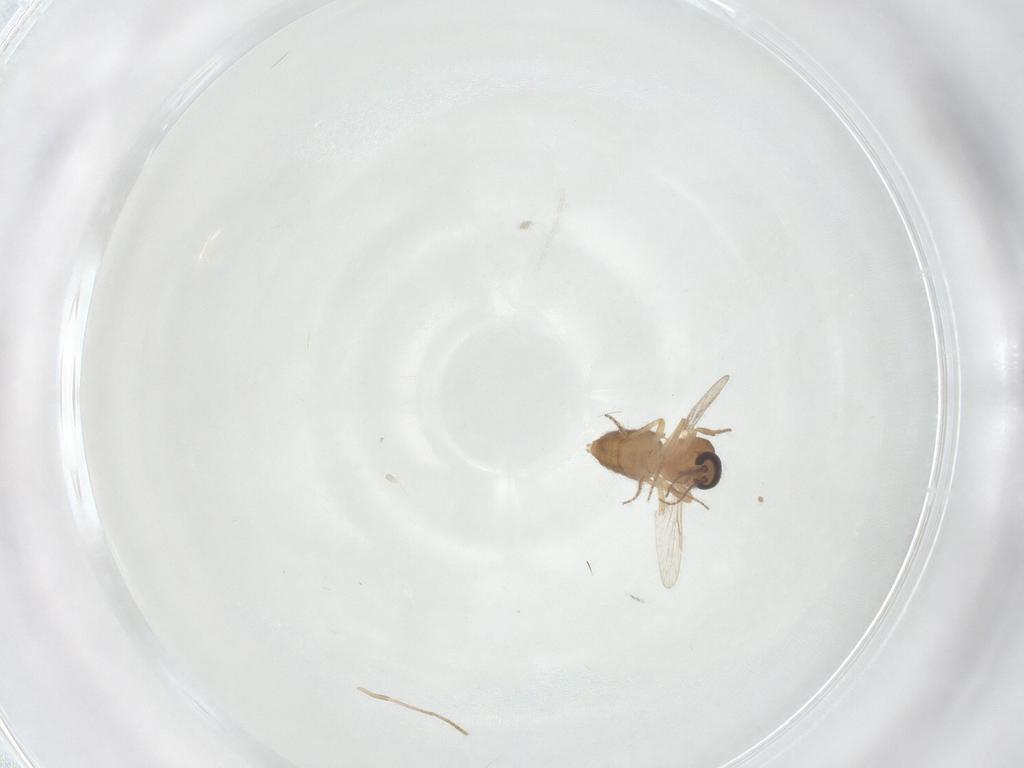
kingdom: Animalia
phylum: Arthropoda
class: Insecta
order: Diptera
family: Ceratopogonidae
